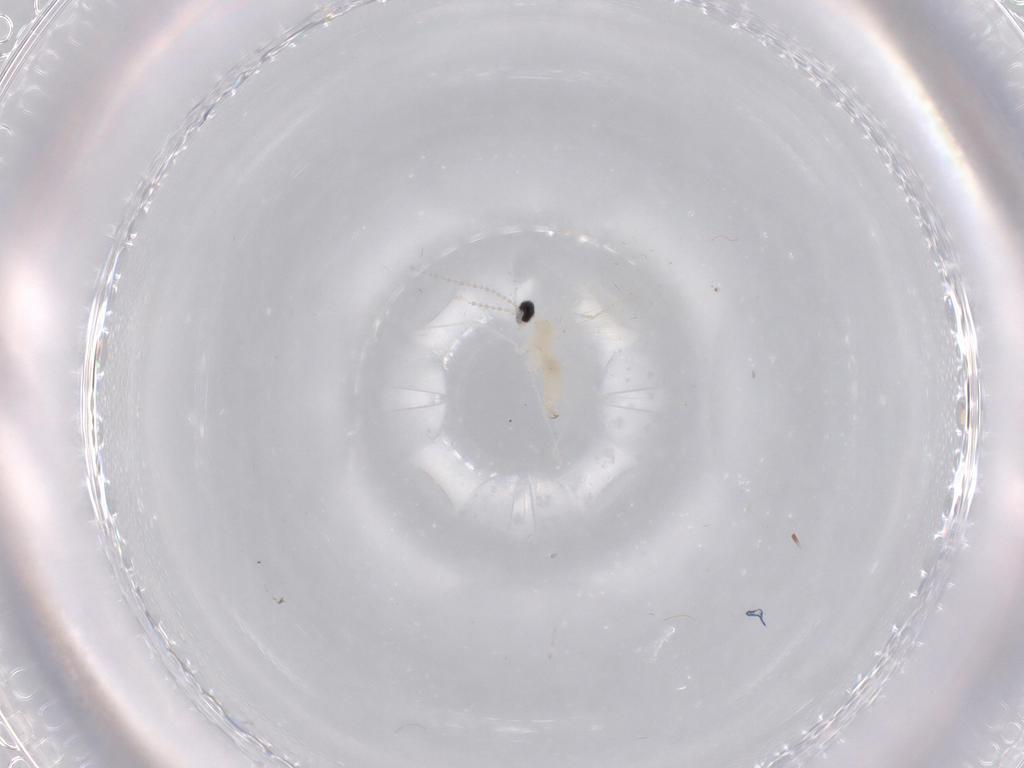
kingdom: Animalia
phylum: Arthropoda
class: Insecta
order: Diptera
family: Cecidomyiidae
